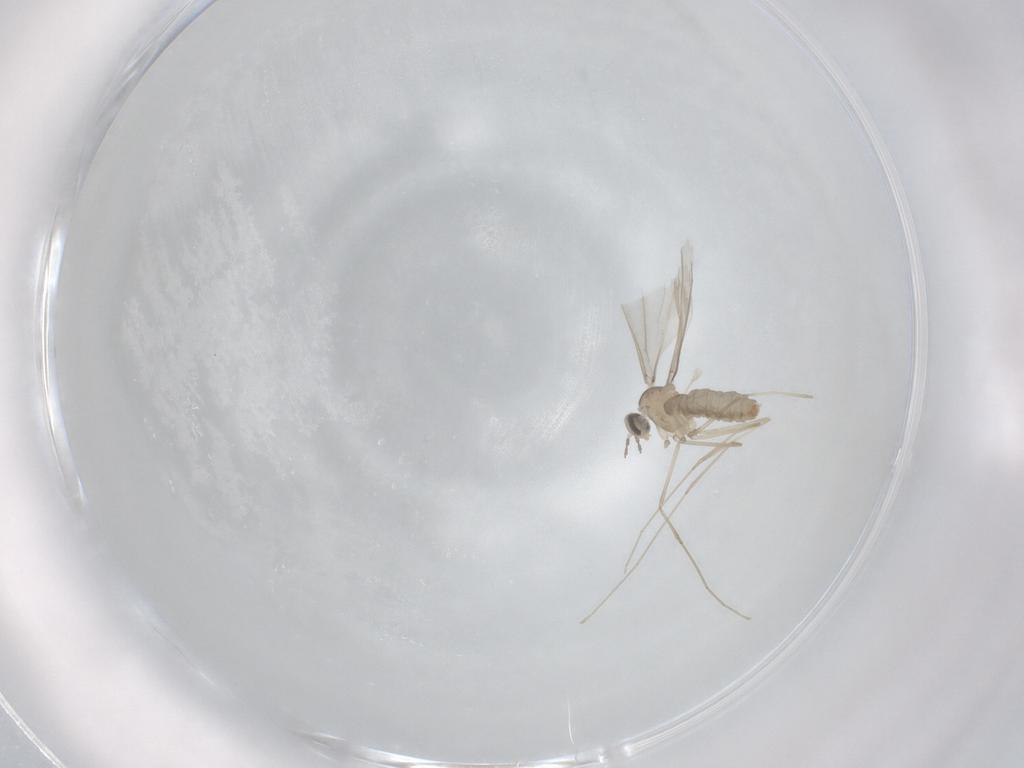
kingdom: Animalia
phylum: Arthropoda
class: Insecta
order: Diptera
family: Cecidomyiidae
